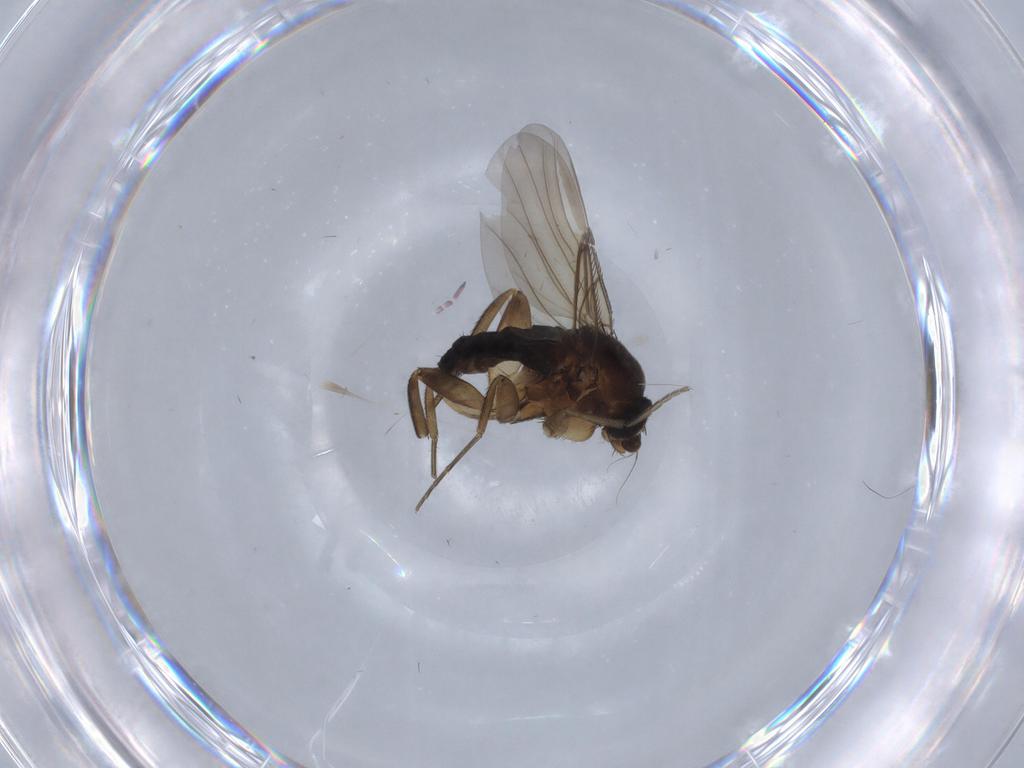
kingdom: Animalia
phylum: Arthropoda
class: Insecta
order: Diptera
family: Phoridae
